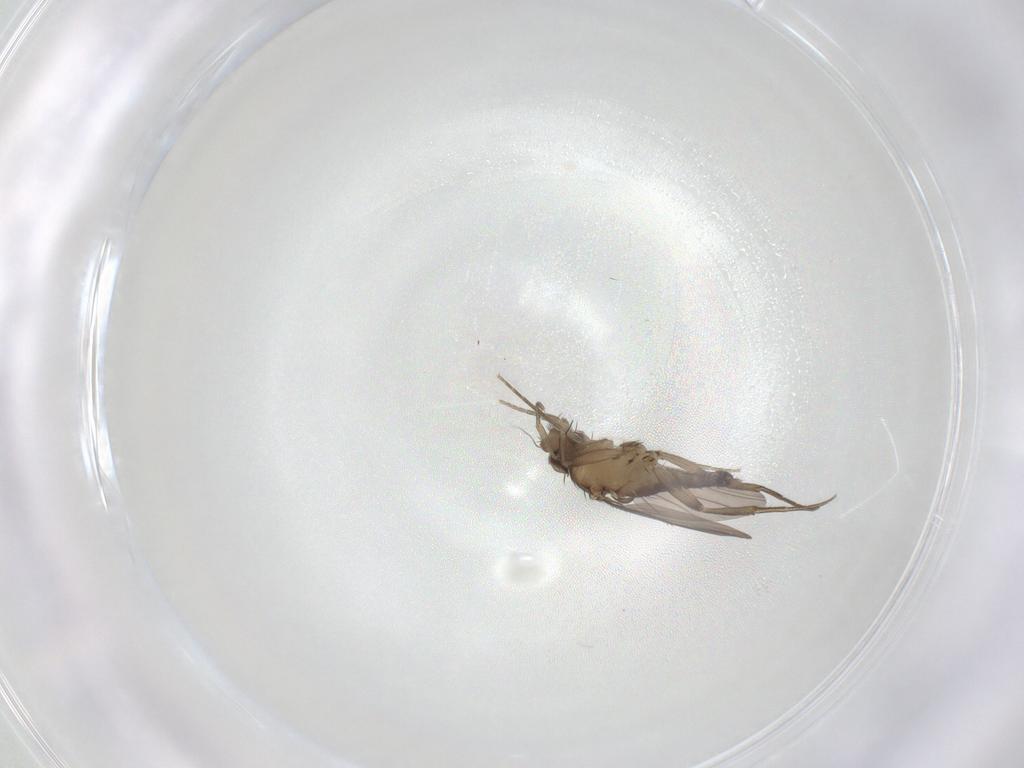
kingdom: Animalia
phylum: Arthropoda
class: Insecta
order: Diptera
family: Phoridae
